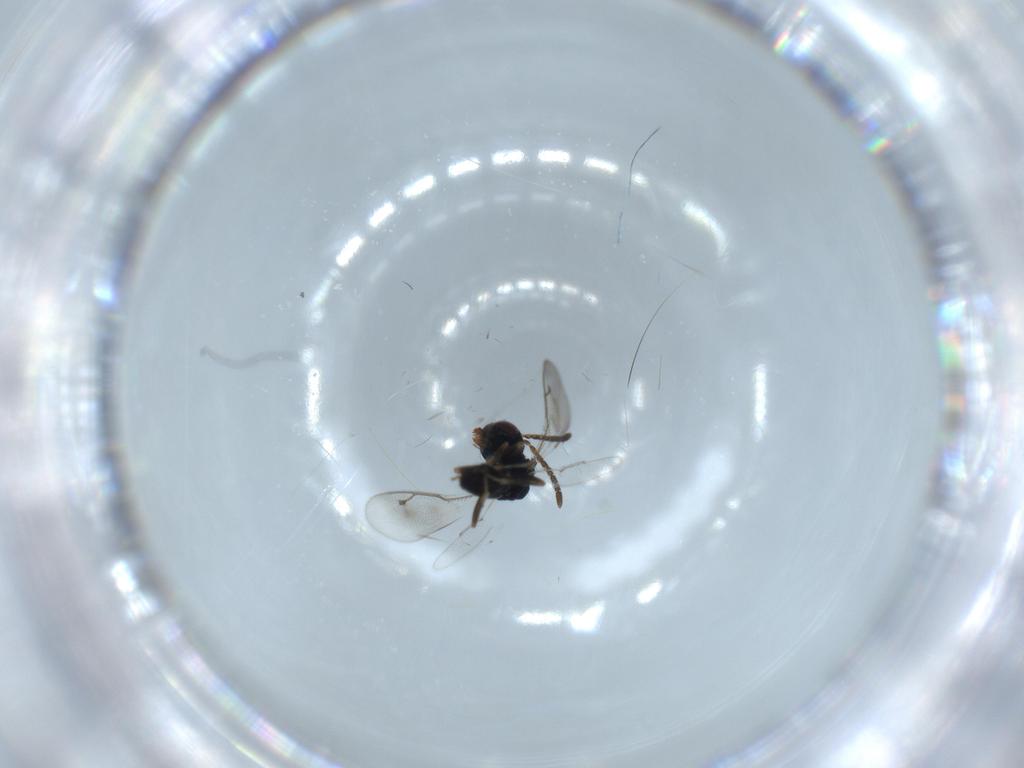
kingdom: Animalia
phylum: Arthropoda
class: Insecta
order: Hymenoptera
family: Pteromalidae
